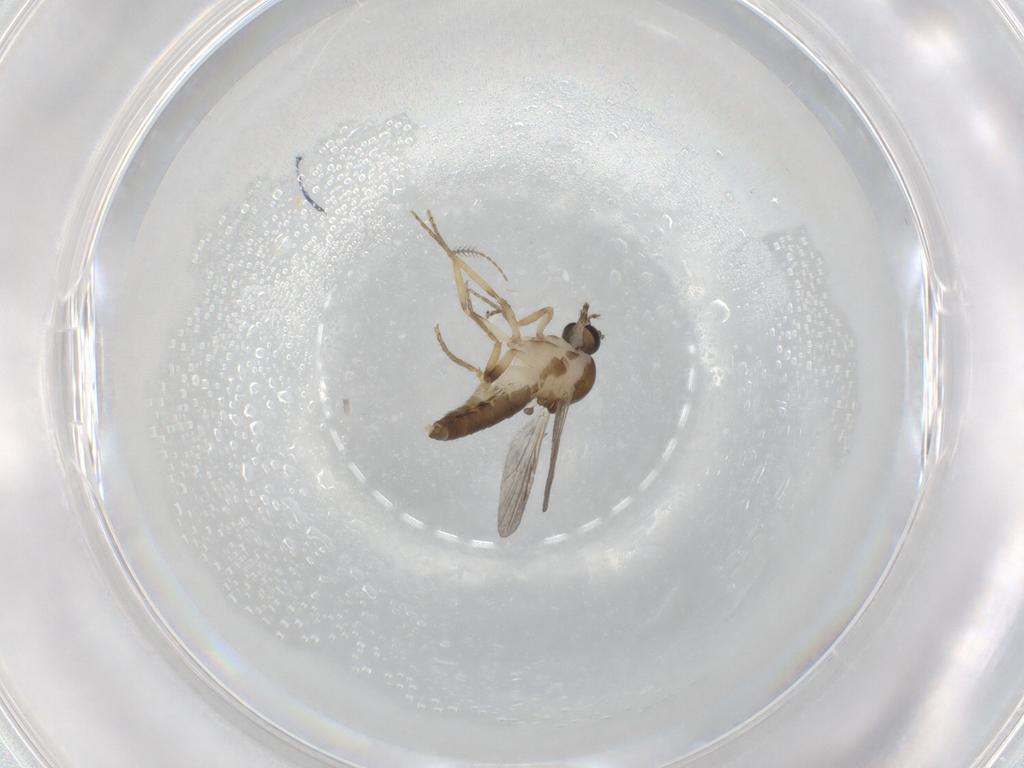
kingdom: Animalia
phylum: Arthropoda
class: Insecta
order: Diptera
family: Ceratopogonidae
